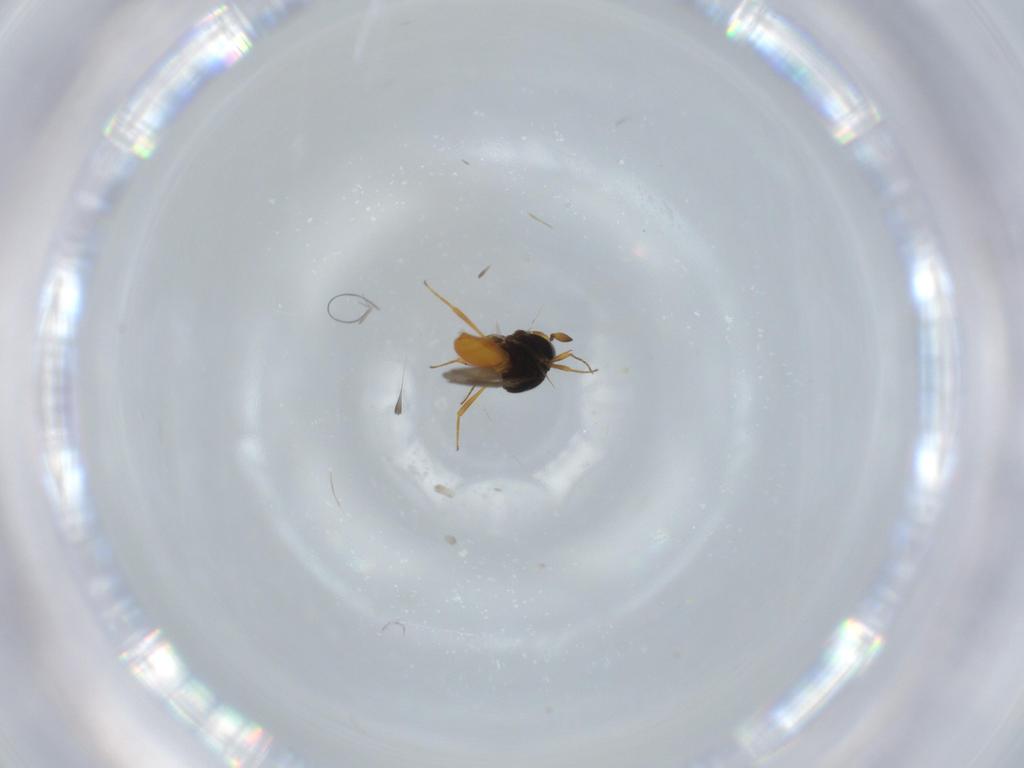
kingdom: Animalia
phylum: Arthropoda
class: Insecta
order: Hymenoptera
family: Scelionidae
